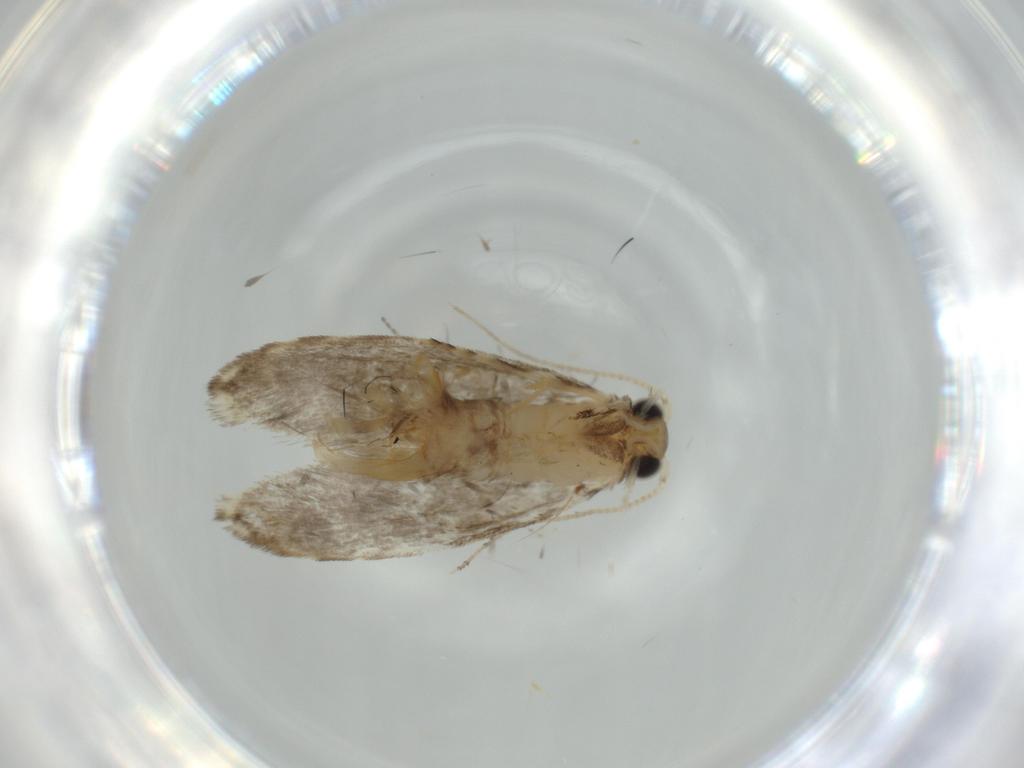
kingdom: Animalia
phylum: Arthropoda
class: Insecta
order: Lepidoptera
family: Tineidae
